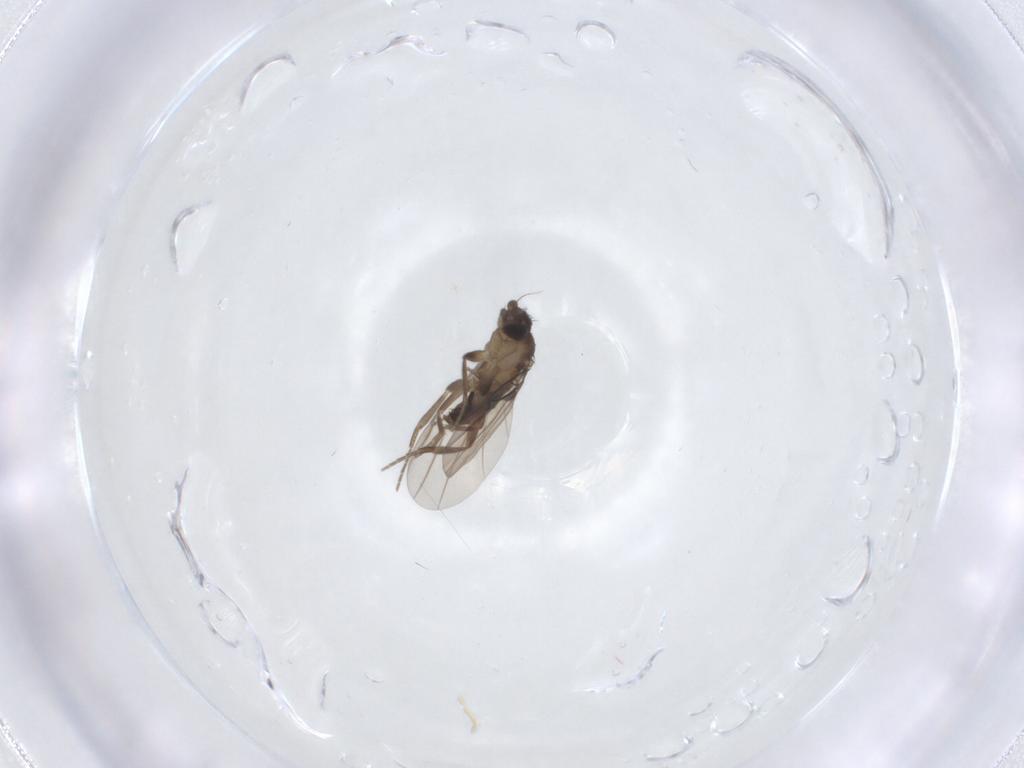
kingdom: Animalia
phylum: Arthropoda
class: Insecta
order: Diptera
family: Phoridae
